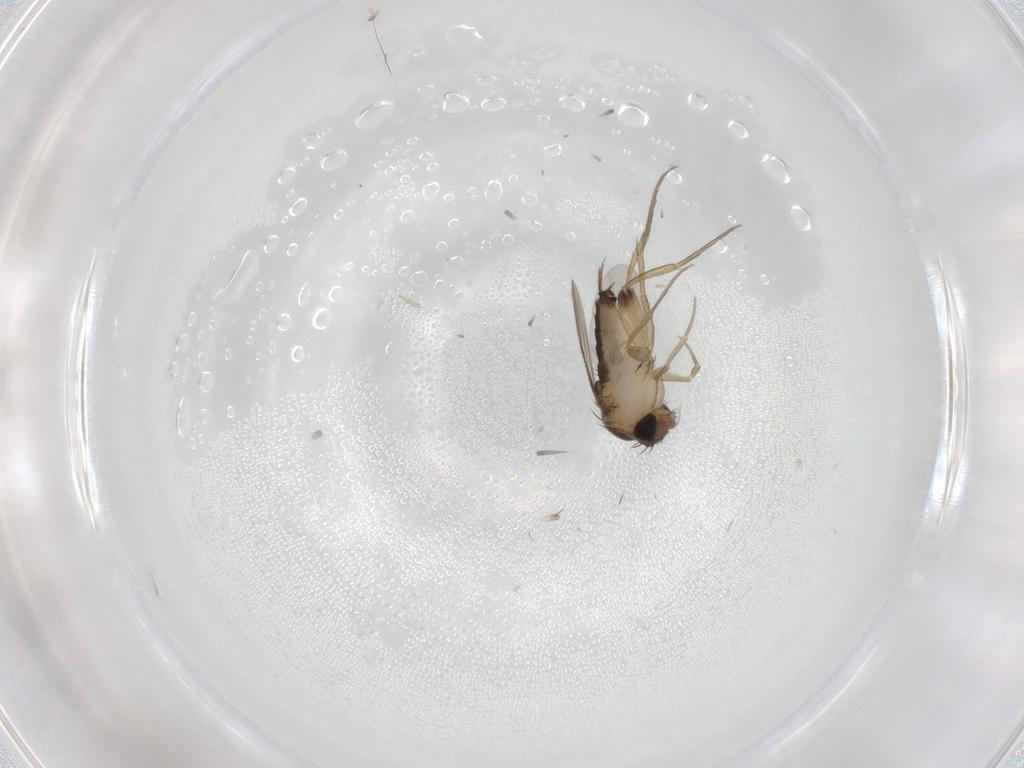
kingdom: Animalia
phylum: Arthropoda
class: Insecta
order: Diptera
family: Phoridae
